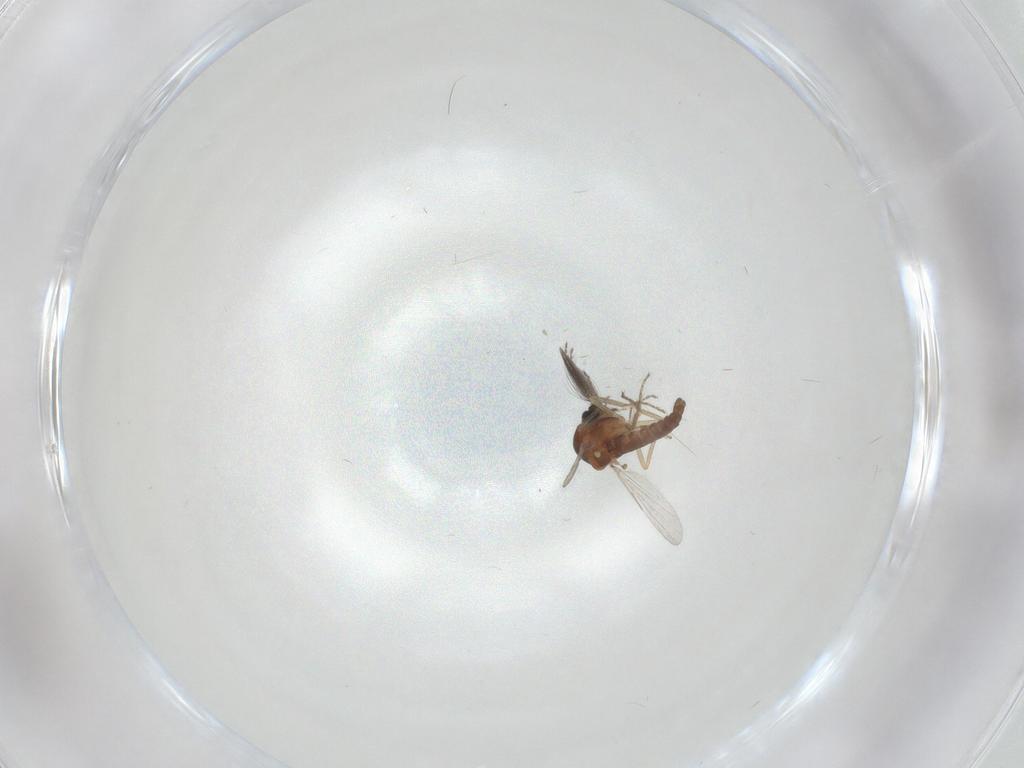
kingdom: Animalia
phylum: Arthropoda
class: Insecta
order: Diptera
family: Ceratopogonidae
